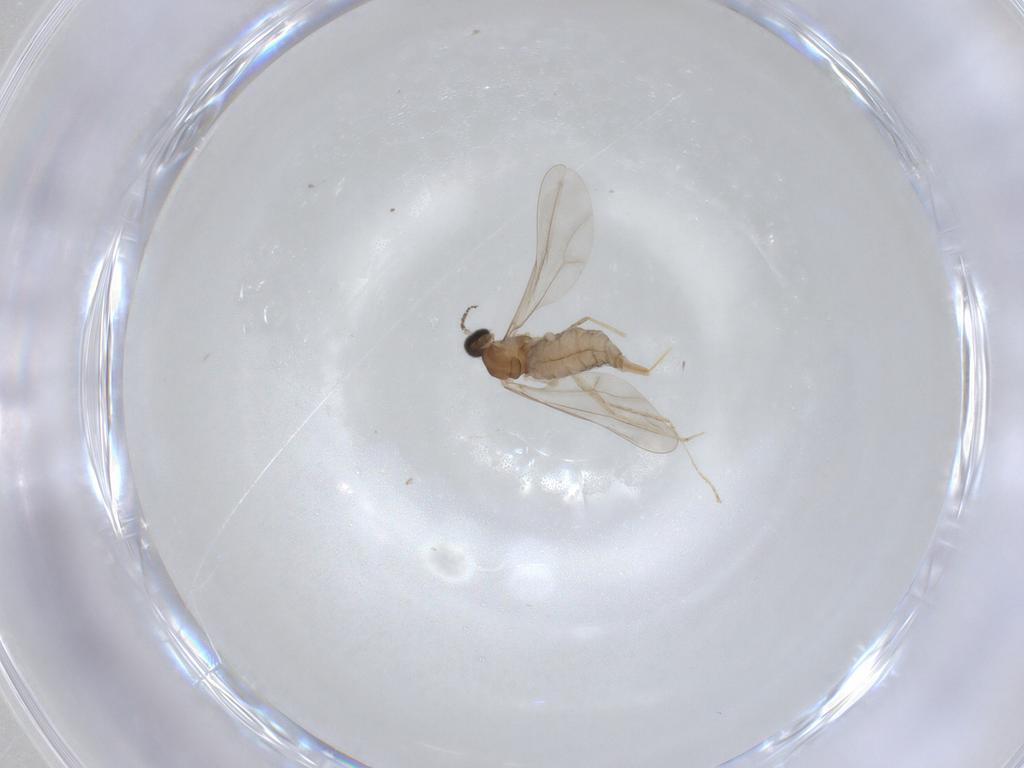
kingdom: Animalia
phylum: Arthropoda
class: Insecta
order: Diptera
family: Cecidomyiidae
